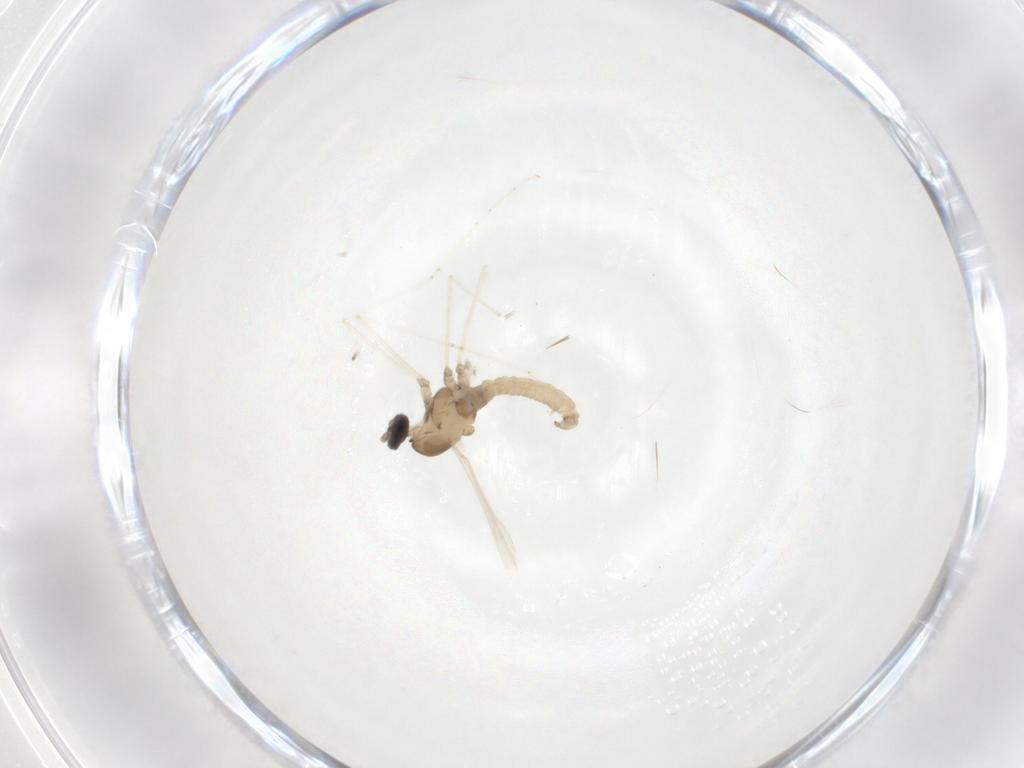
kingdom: Animalia
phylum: Arthropoda
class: Insecta
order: Diptera
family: Cecidomyiidae
